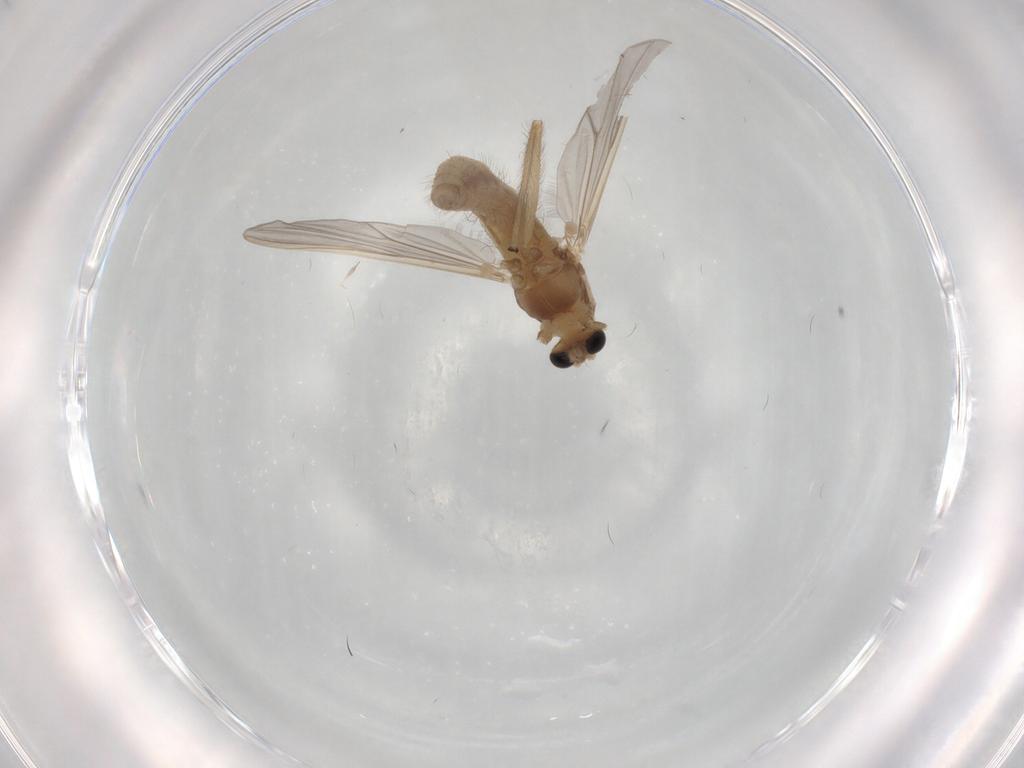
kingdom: Animalia
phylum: Arthropoda
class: Insecta
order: Diptera
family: Chironomidae
